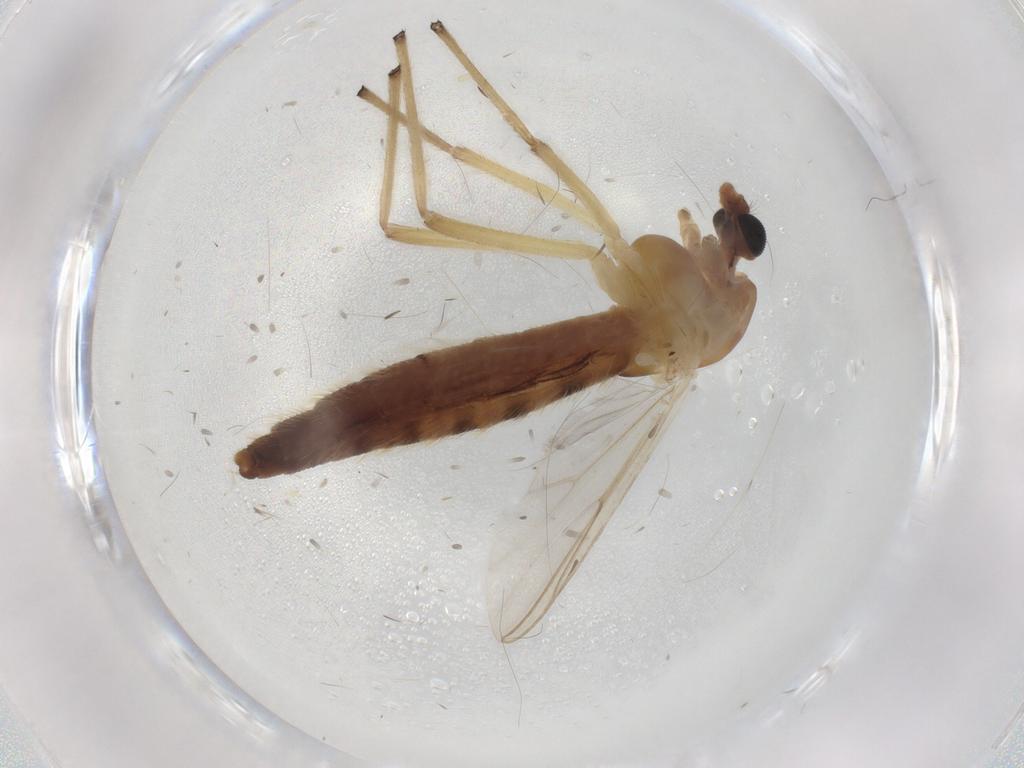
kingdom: Animalia
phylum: Arthropoda
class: Insecta
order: Diptera
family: Chironomidae
